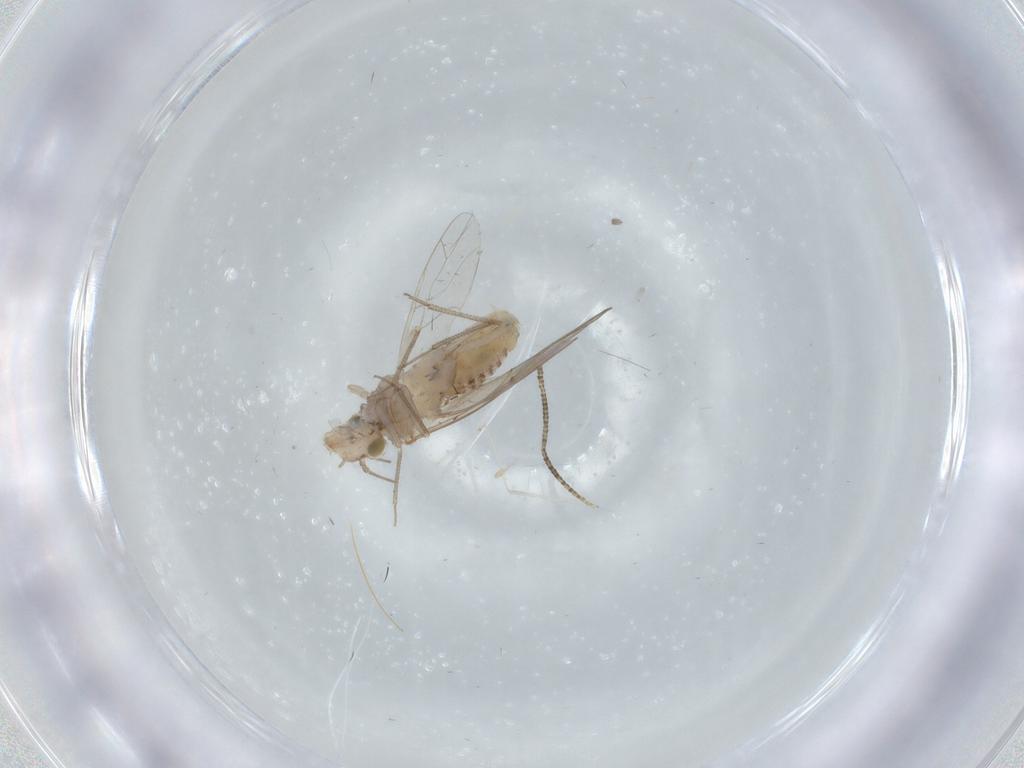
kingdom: Animalia
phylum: Arthropoda
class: Insecta
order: Psocodea
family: Lachesillidae
